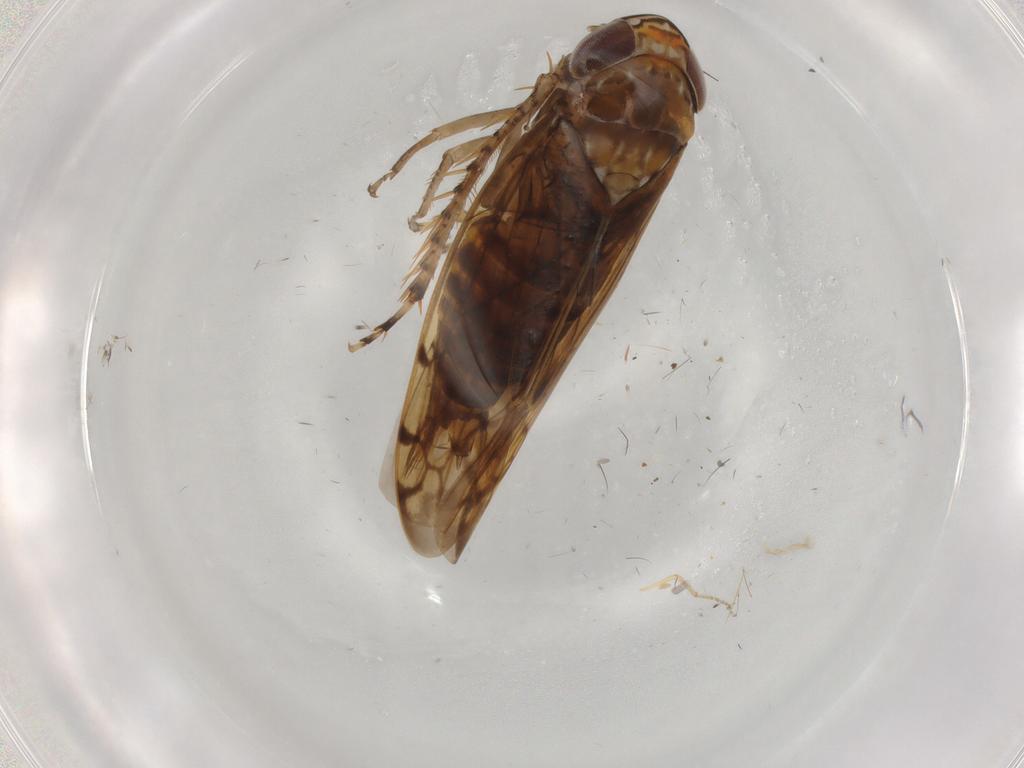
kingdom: Animalia
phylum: Arthropoda
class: Insecta
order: Hemiptera
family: Cicadellidae
